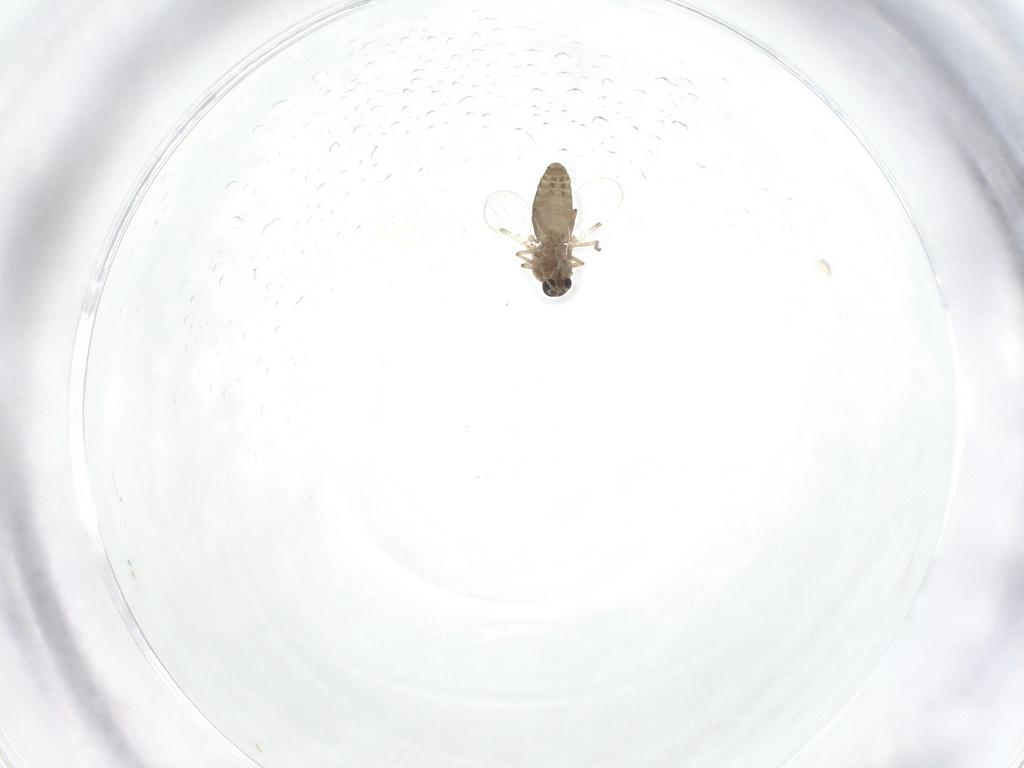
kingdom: Animalia
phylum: Arthropoda
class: Insecta
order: Diptera
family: Ceratopogonidae
